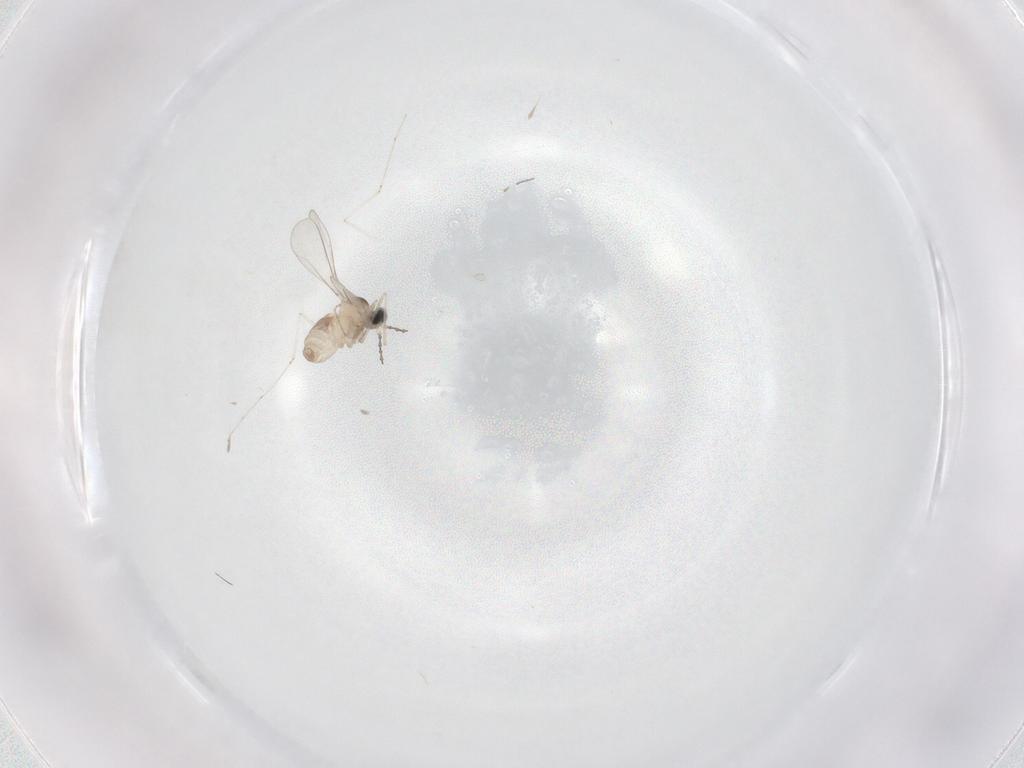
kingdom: Animalia
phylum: Arthropoda
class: Insecta
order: Diptera
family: Cecidomyiidae
